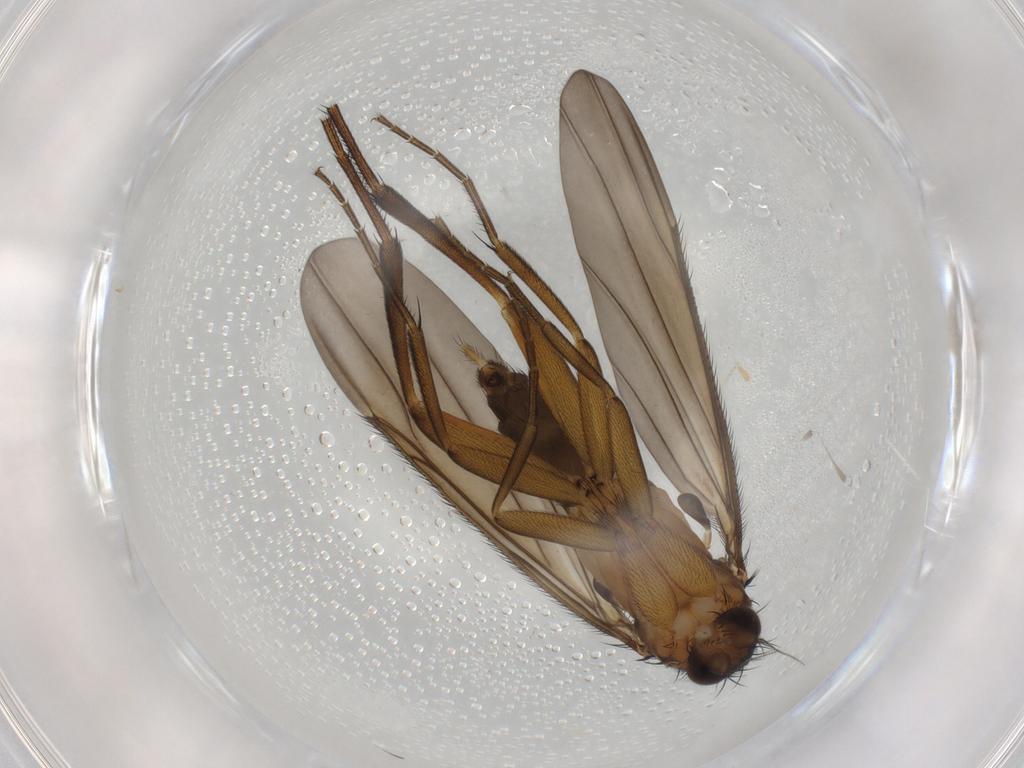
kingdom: Animalia
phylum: Arthropoda
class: Insecta
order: Diptera
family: Phoridae
